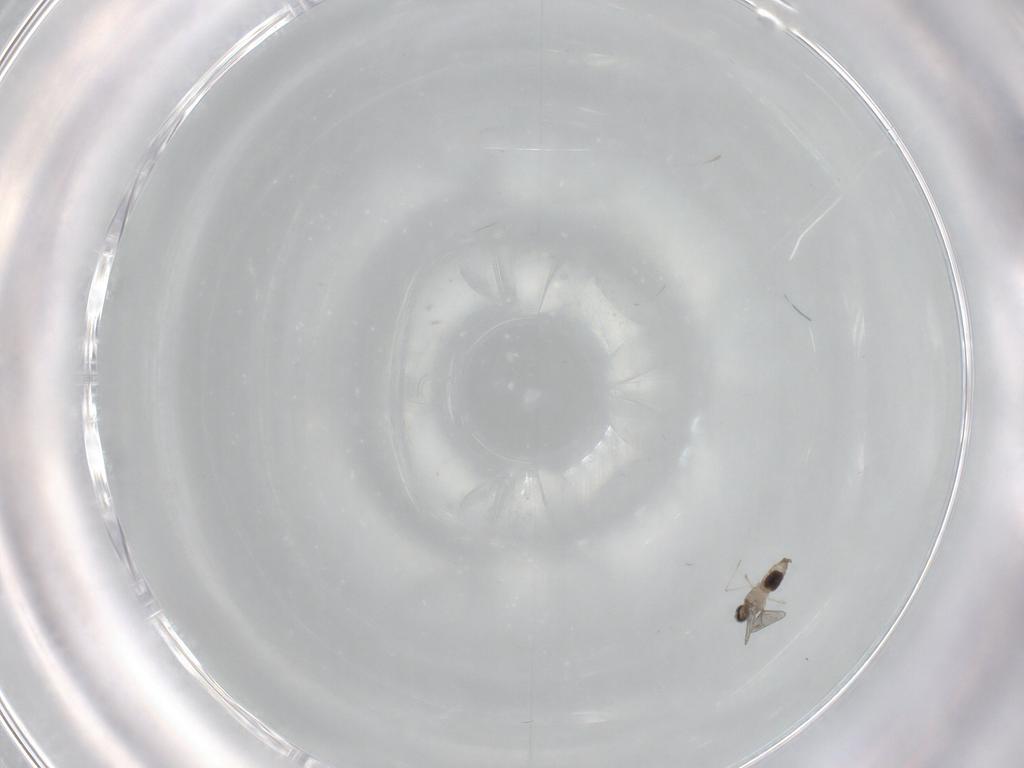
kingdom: Animalia
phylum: Arthropoda
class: Insecta
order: Diptera
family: Chironomidae
